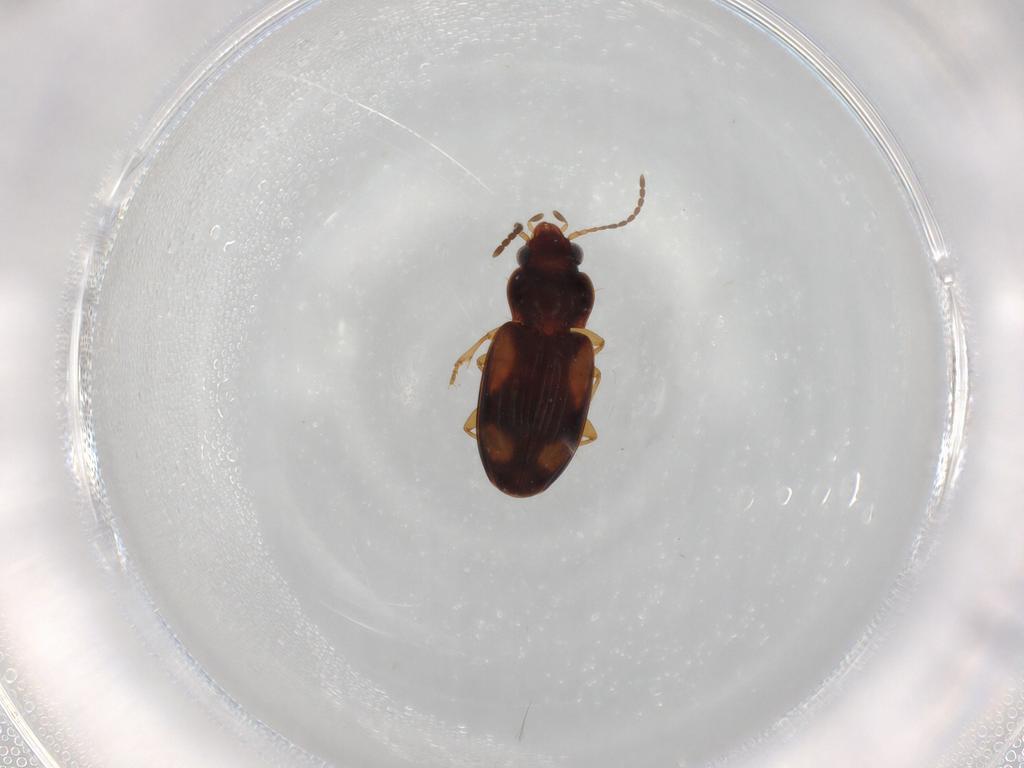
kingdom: Animalia
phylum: Arthropoda
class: Insecta
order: Coleoptera
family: Carabidae
